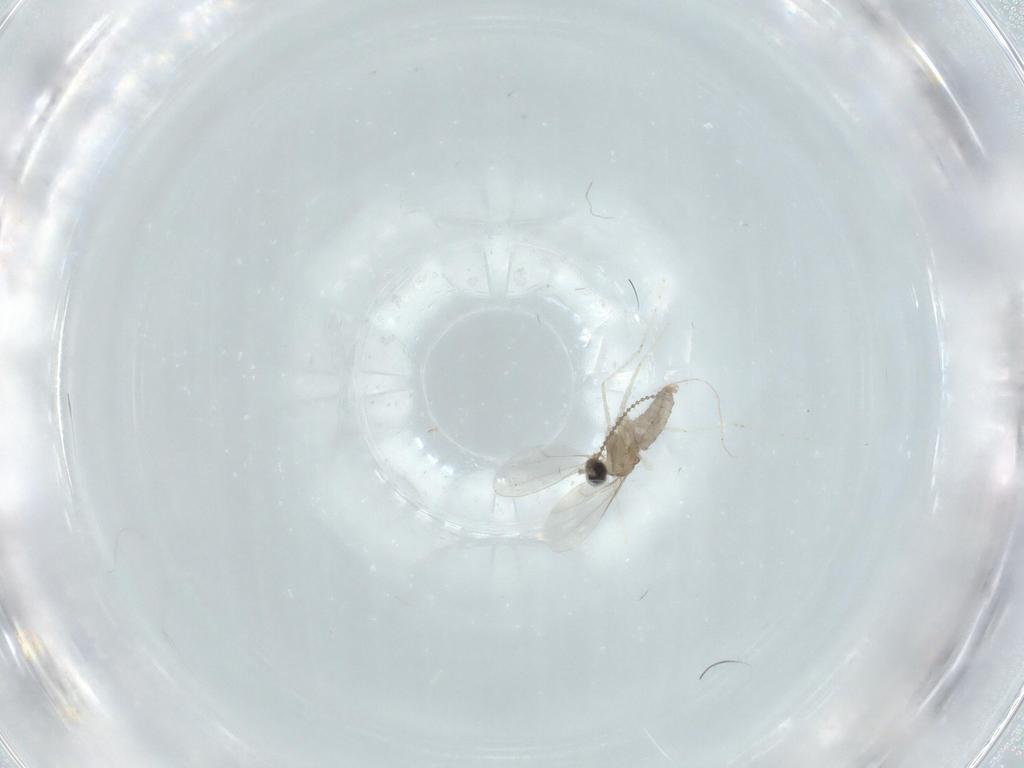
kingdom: Animalia
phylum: Arthropoda
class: Insecta
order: Diptera
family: Cecidomyiidae
